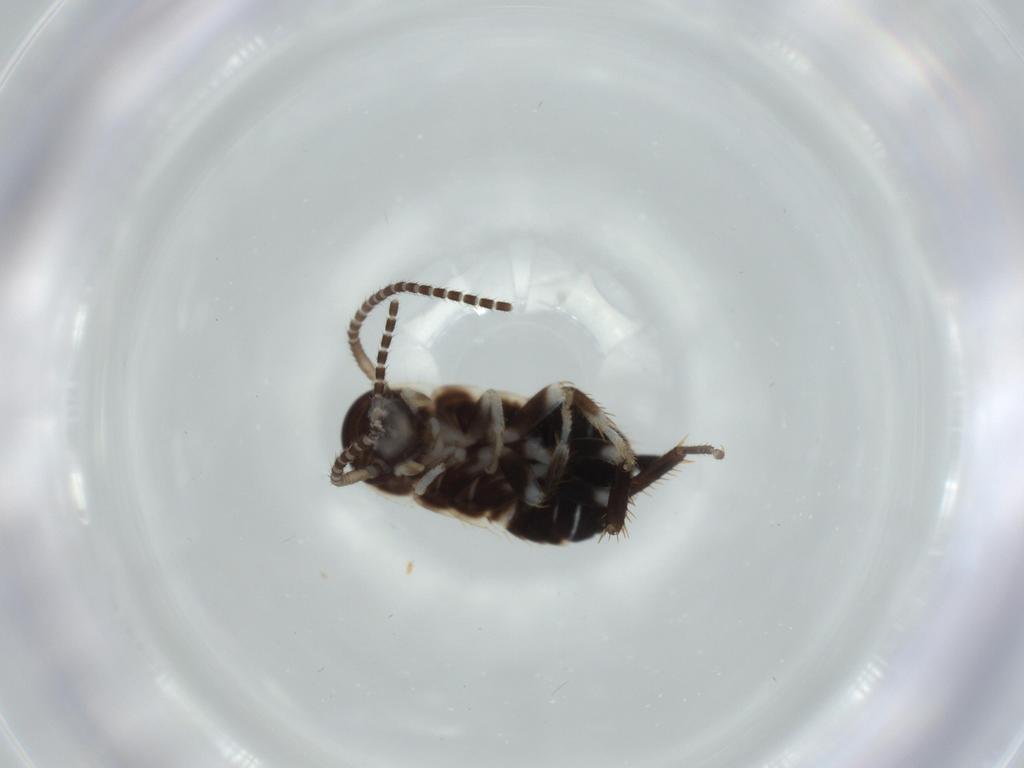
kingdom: Animalia
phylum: Arthropoda
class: Insecta
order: Blattodea
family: Ectobiidae
